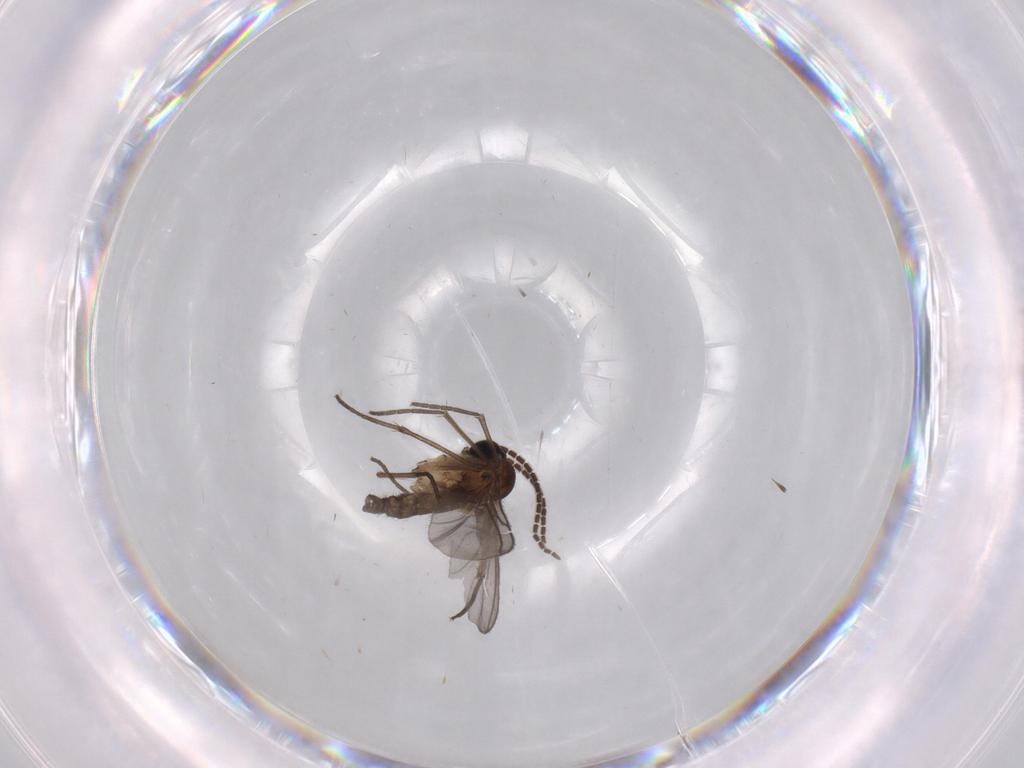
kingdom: Animalia
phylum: Arthropoda
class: Insecta
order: Diptera
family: Sciaridae
